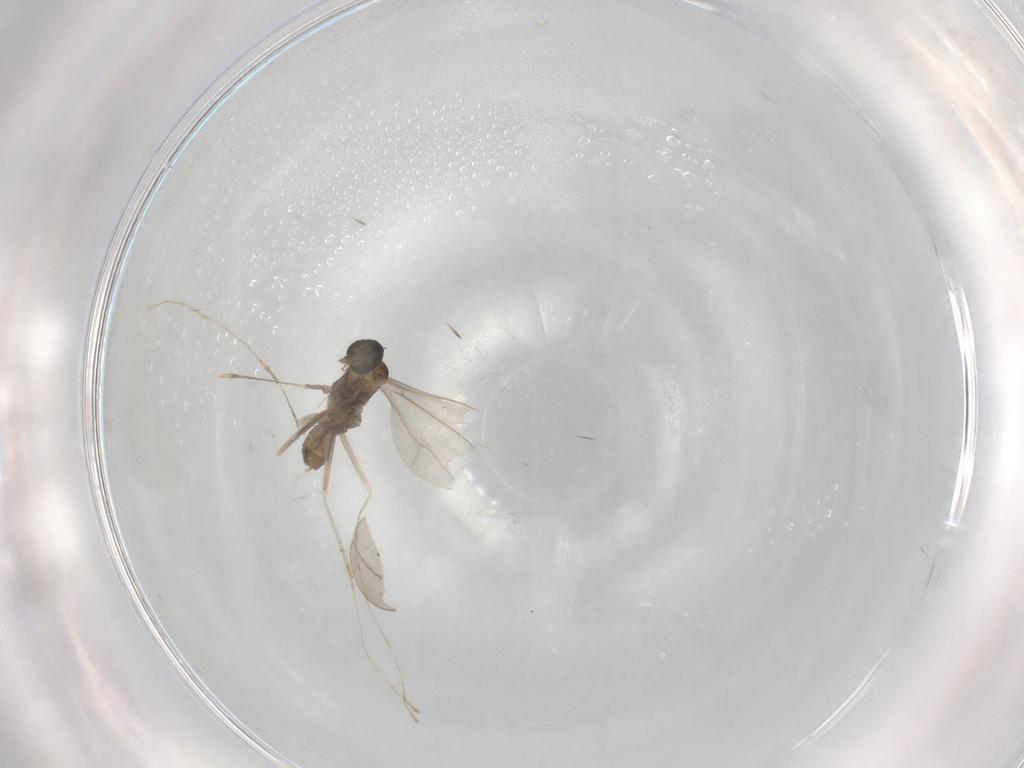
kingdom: Animalia
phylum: Arthropoda
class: Insecta
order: Diptera
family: Cecidomyiidae
